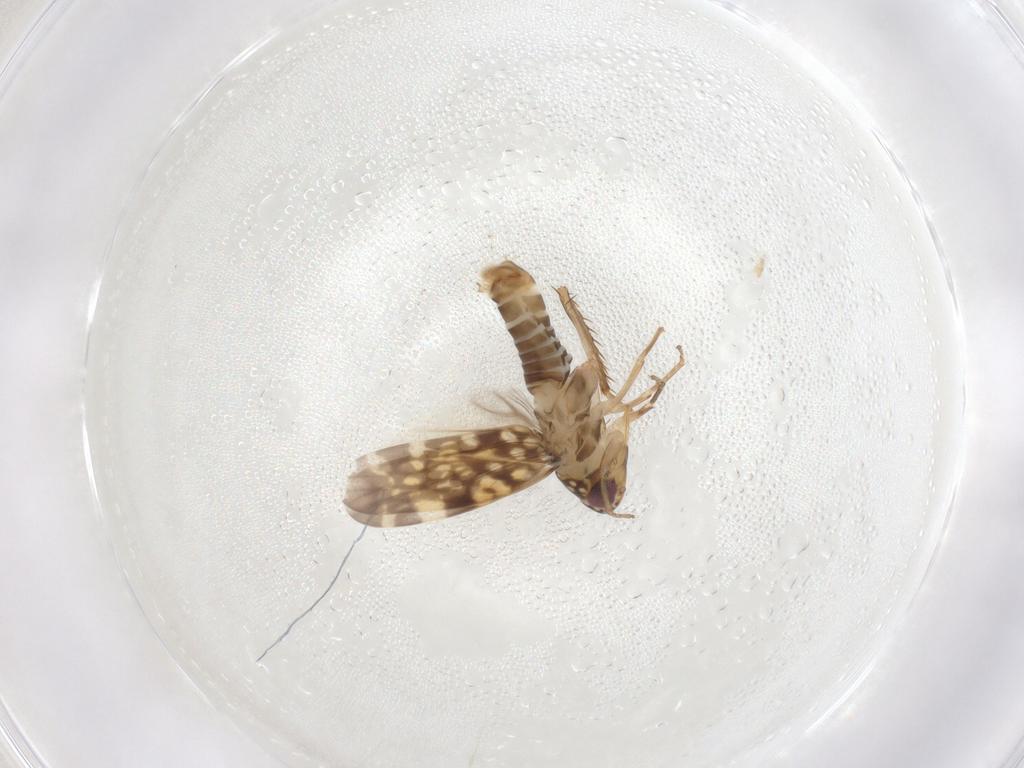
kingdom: Animalia
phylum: Arthropoda
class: Insecta
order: Hemiptera
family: Cicadellidae
